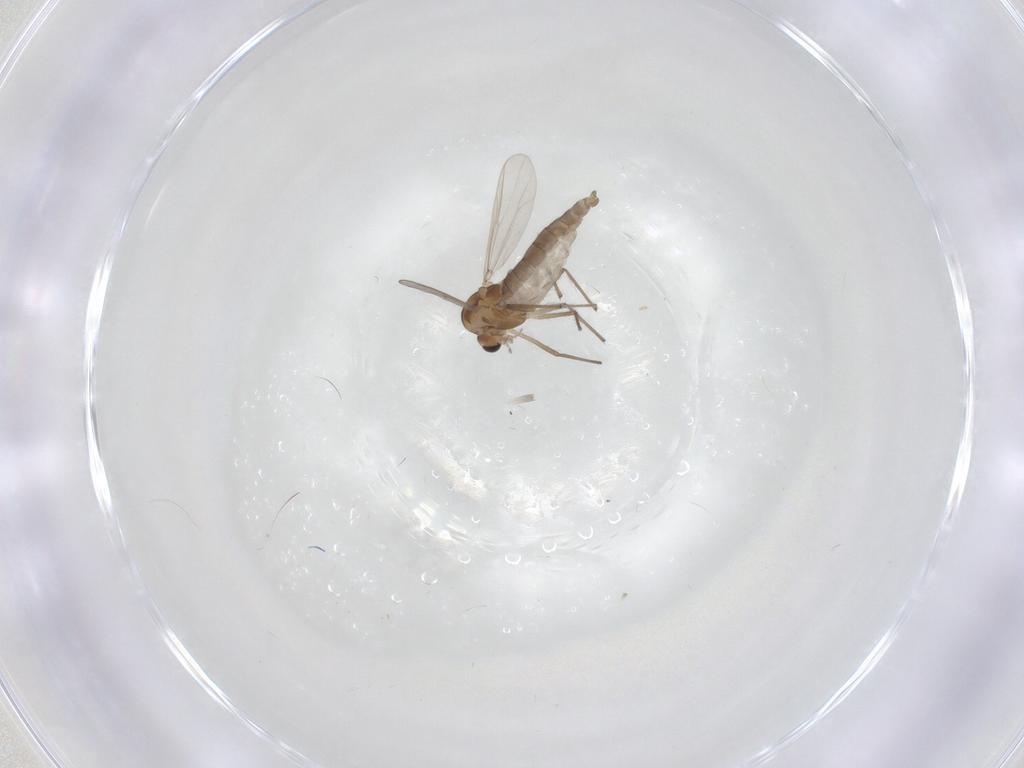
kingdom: Animalia
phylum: Arthropoda
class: Insecta
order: Diptera
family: Chironomidae
